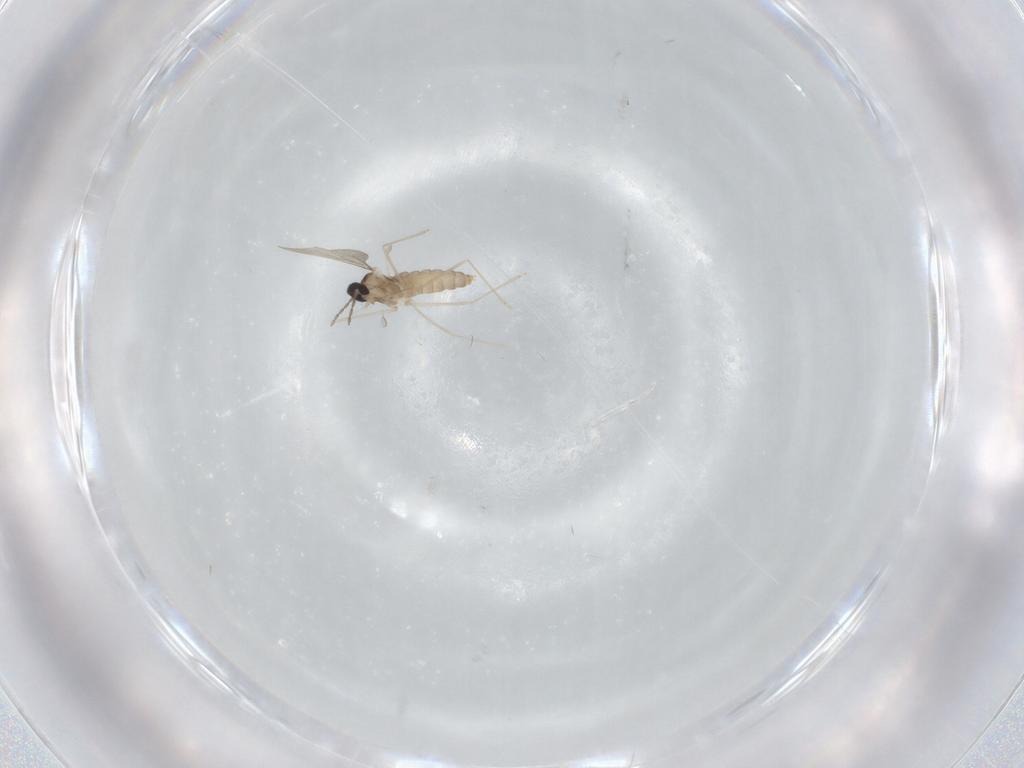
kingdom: Animalia
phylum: Arthropoda
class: Insecta
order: Diptera
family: Cecidomyiidae
